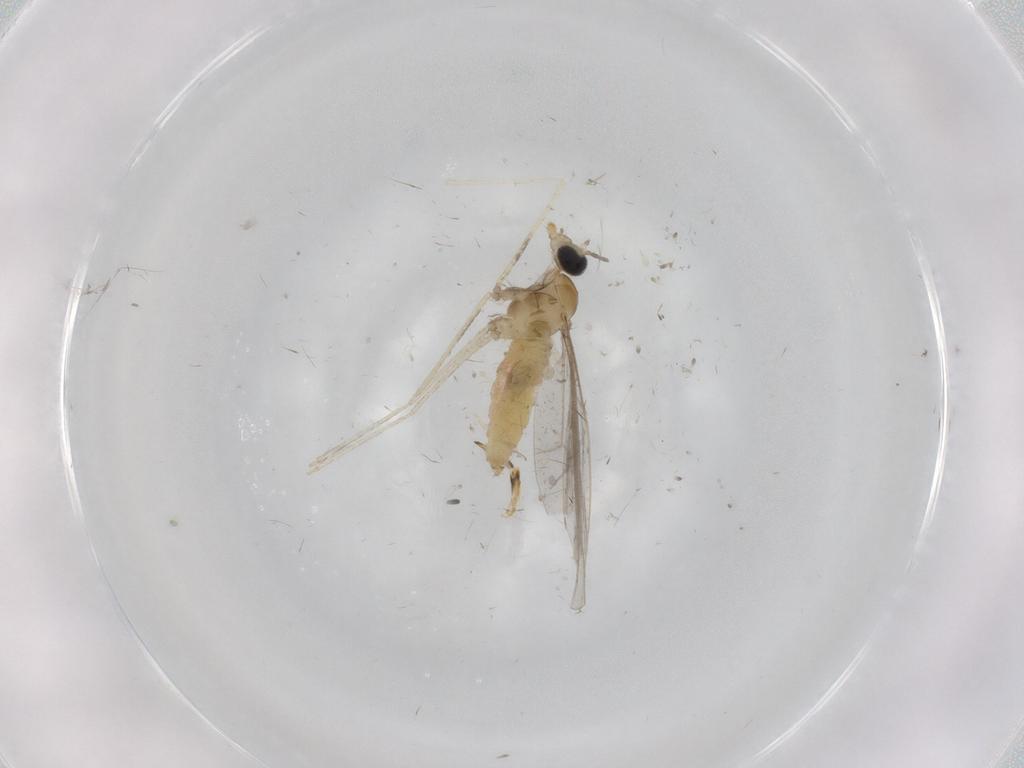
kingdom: Animalia
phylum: Arthropoda
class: Insecta
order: Diptera
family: Cecidomyiidae
